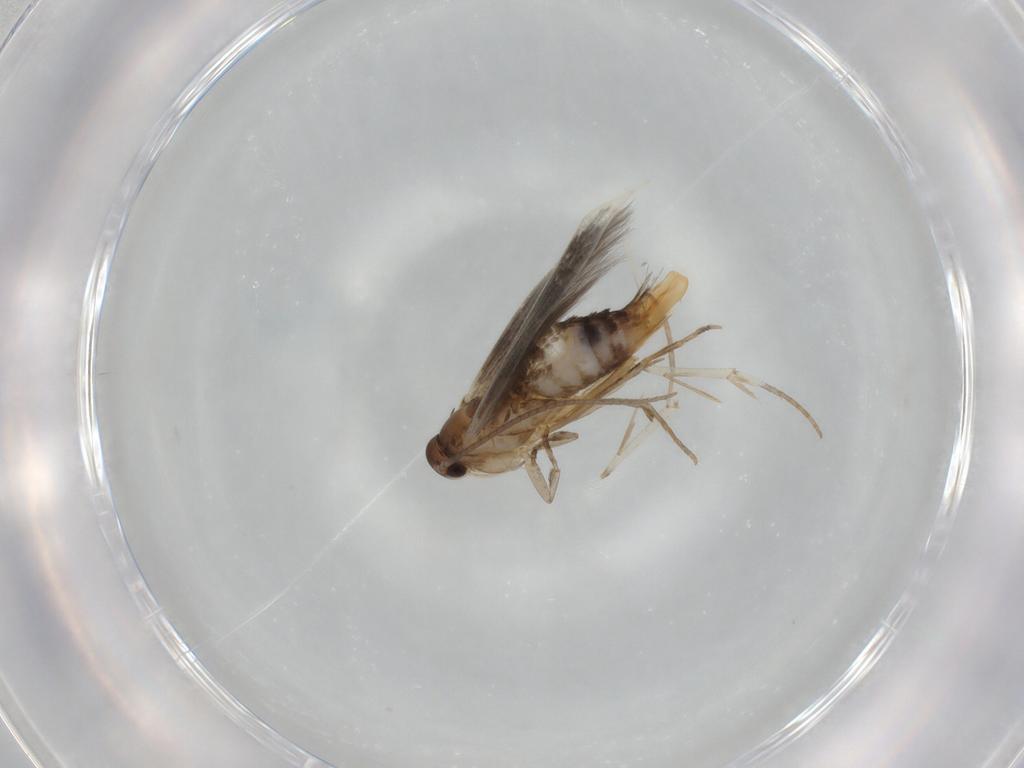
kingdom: Animalia
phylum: Arthropoda
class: Insecta
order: Lepidoptera
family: Elachistidae
